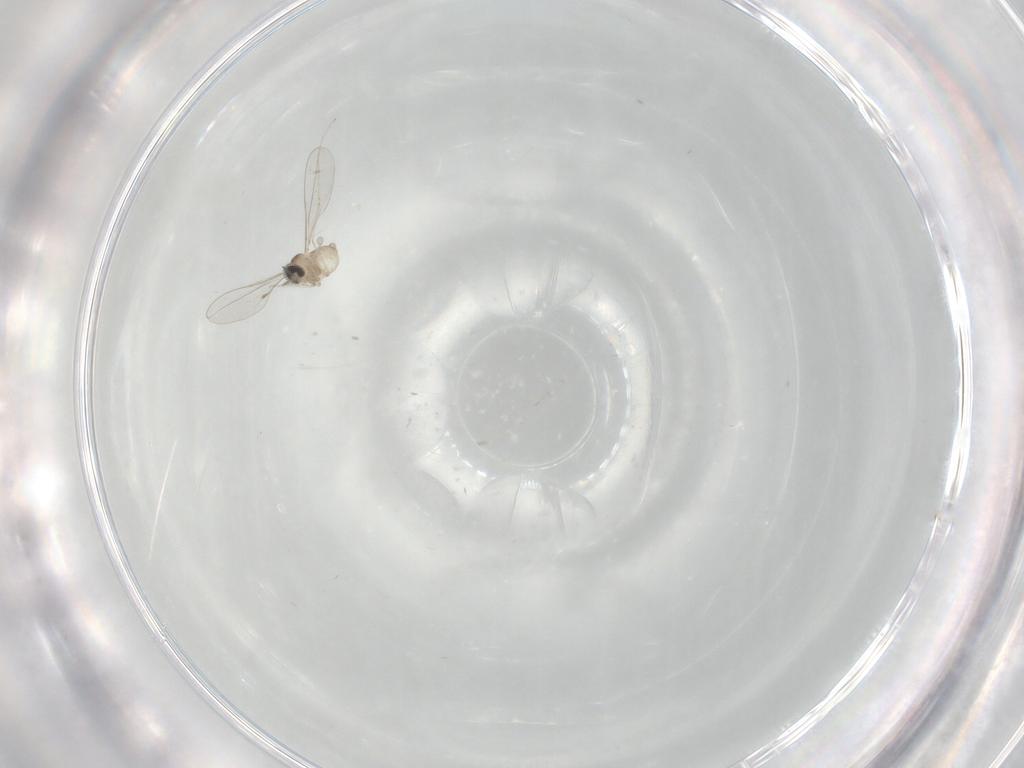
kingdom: Animalia
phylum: Arthropoda
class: Insecta
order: Diptera
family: Cecidomyiidae
